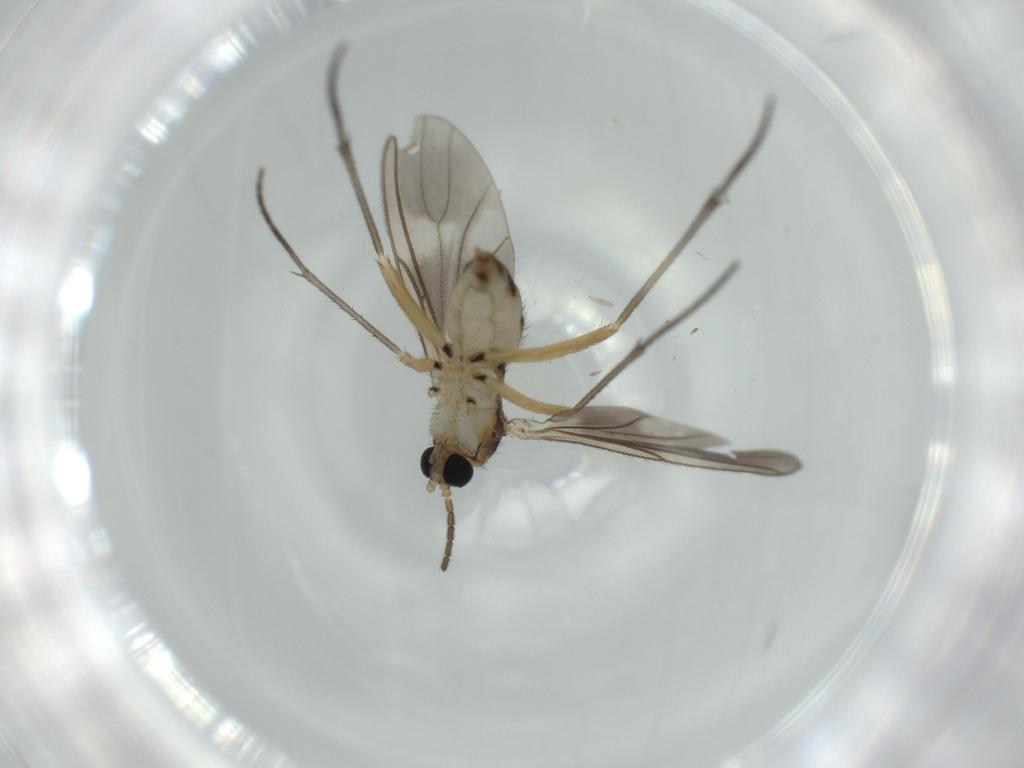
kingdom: Animalia
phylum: Arthropoda
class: Insecta
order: Diptera
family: Sciaridae
